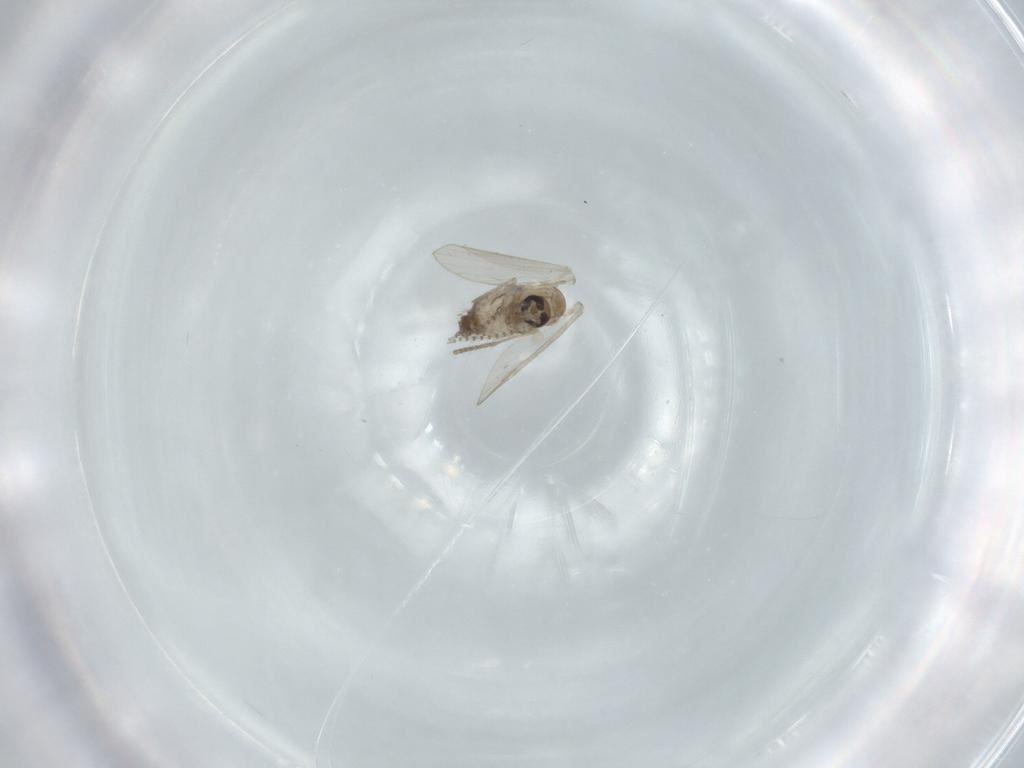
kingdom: Animalia
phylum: Arthropoda
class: Insecta
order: Diptera
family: Psychodidae
